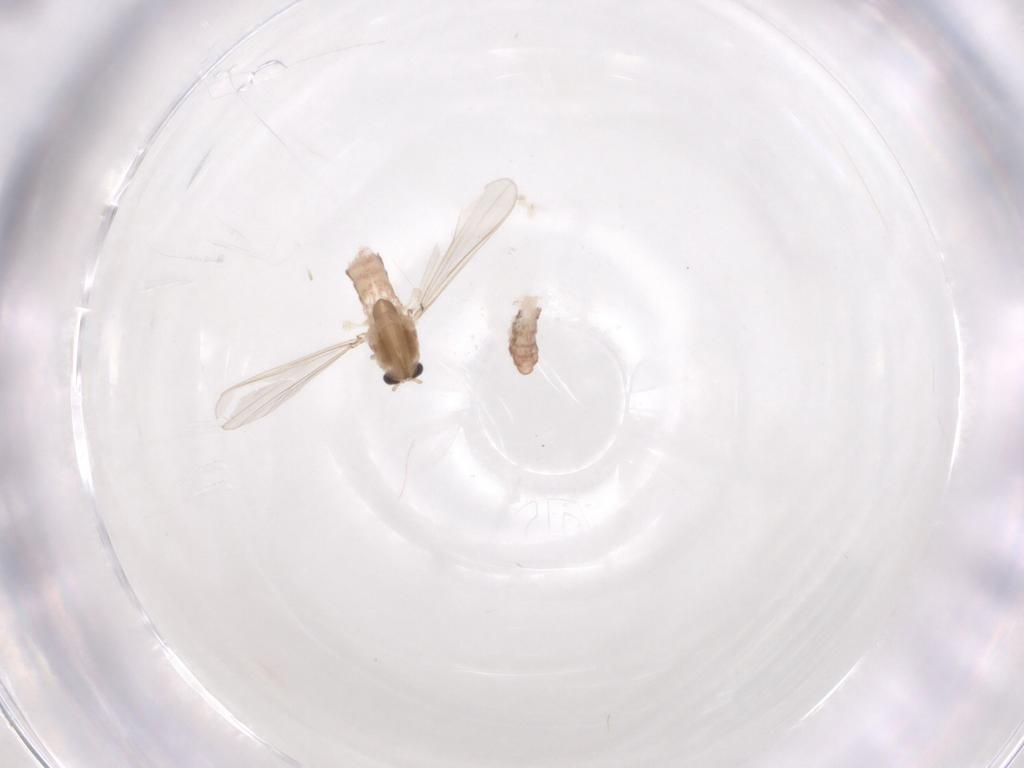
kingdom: Animalia
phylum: Arthropoda
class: Insecta
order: Diptera
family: Chironomidae
